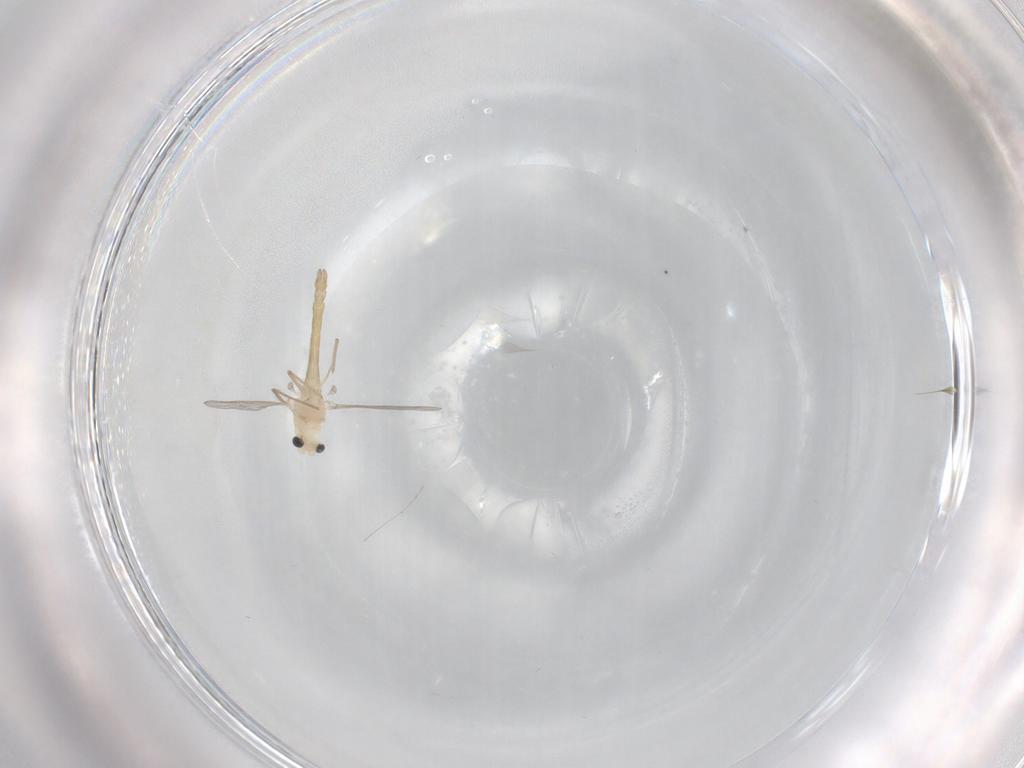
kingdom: Animalia
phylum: Arthropoda
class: Insecta
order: Diptera
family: Chironomidae
